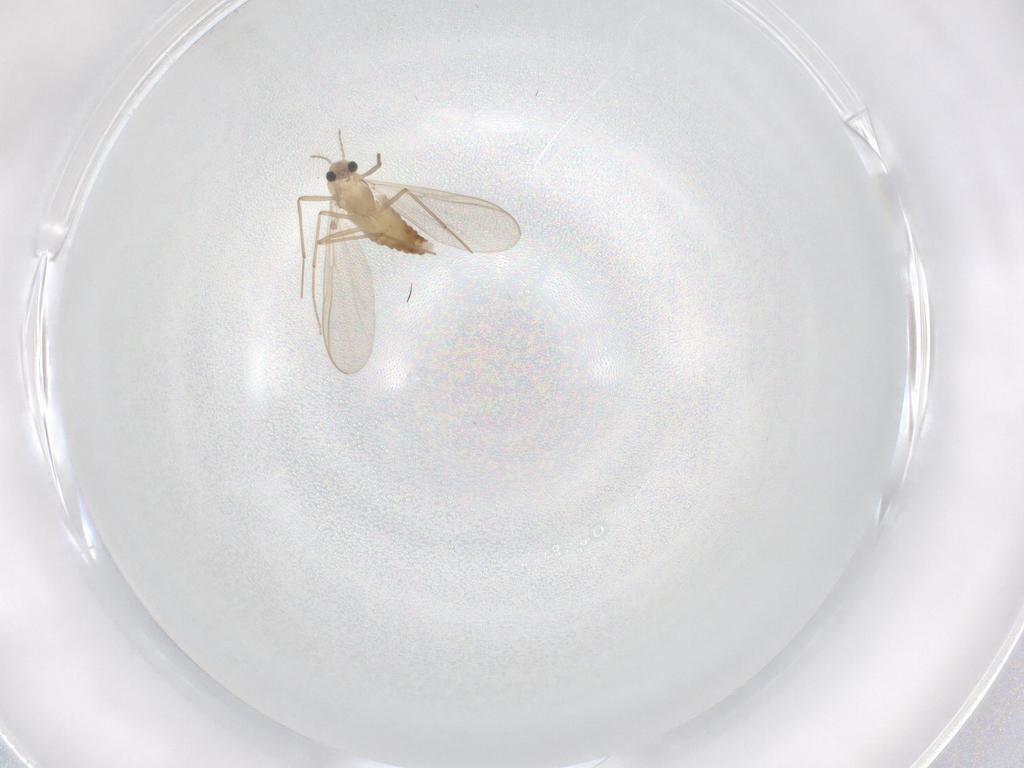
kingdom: Animalia
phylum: Arthropoda
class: Insecta
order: Diptera
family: Chironomidae
